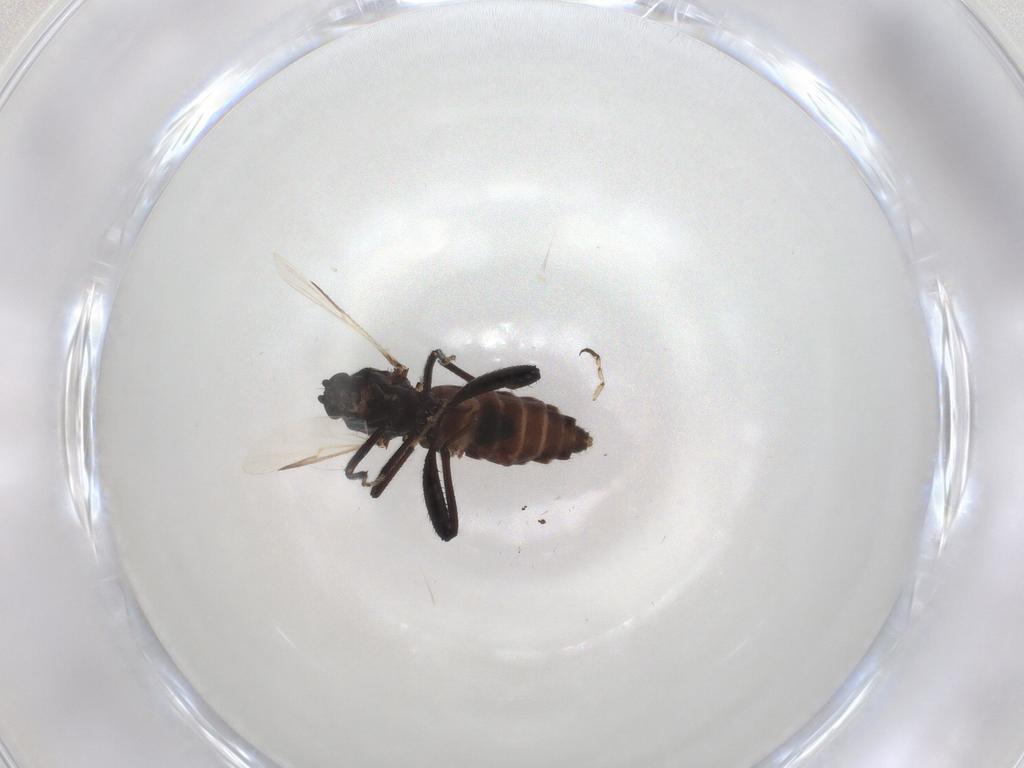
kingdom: Animalia
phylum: Arthropoda
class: Insecta
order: Diptera
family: Ceratopogonidae
